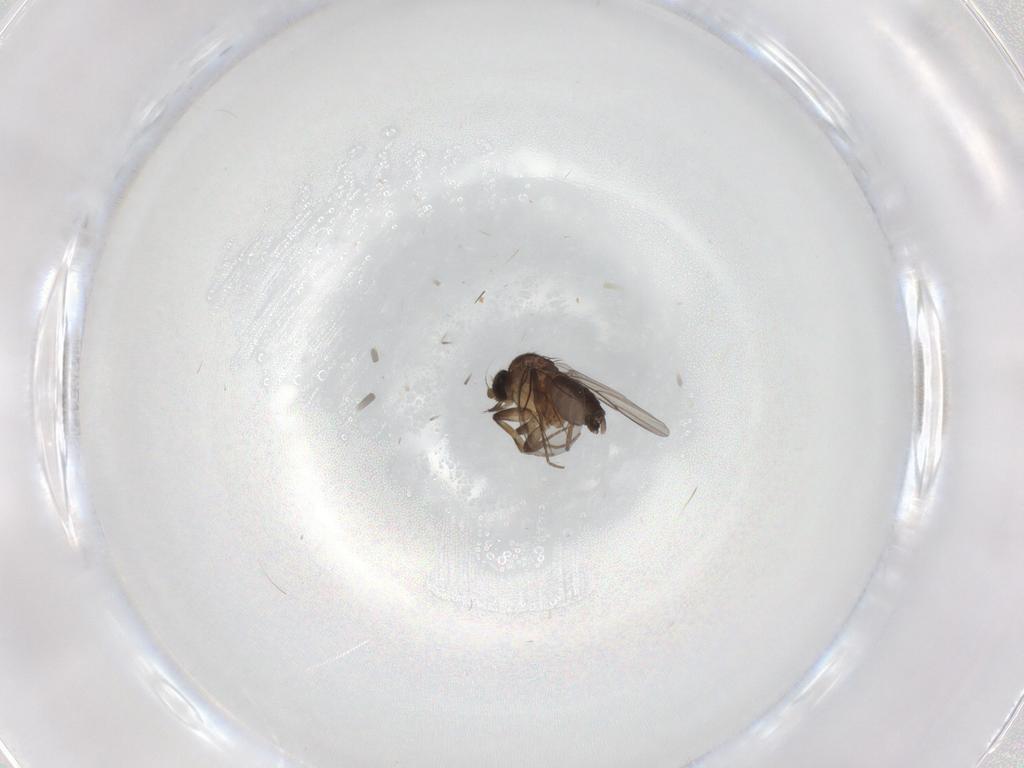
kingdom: Animalia
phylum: Arthropoda
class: Insecta
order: Diptera
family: Phoridae
